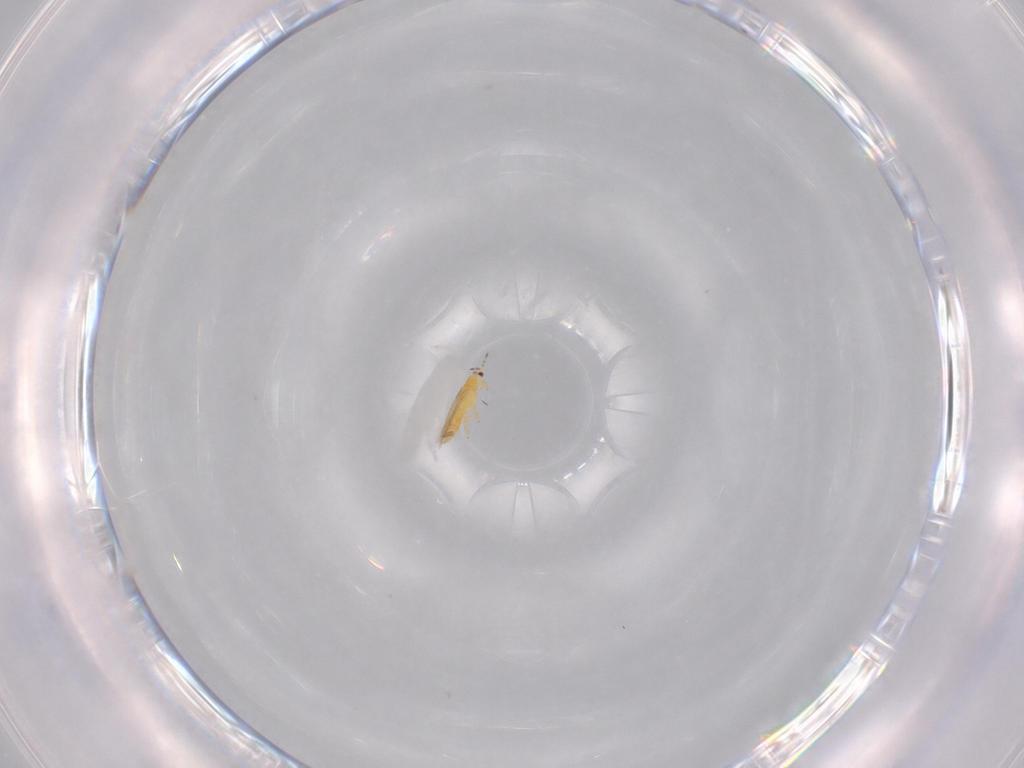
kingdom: Animalia
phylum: Arthropoda
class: Insecta
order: Thysanoptera
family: Thripidae
